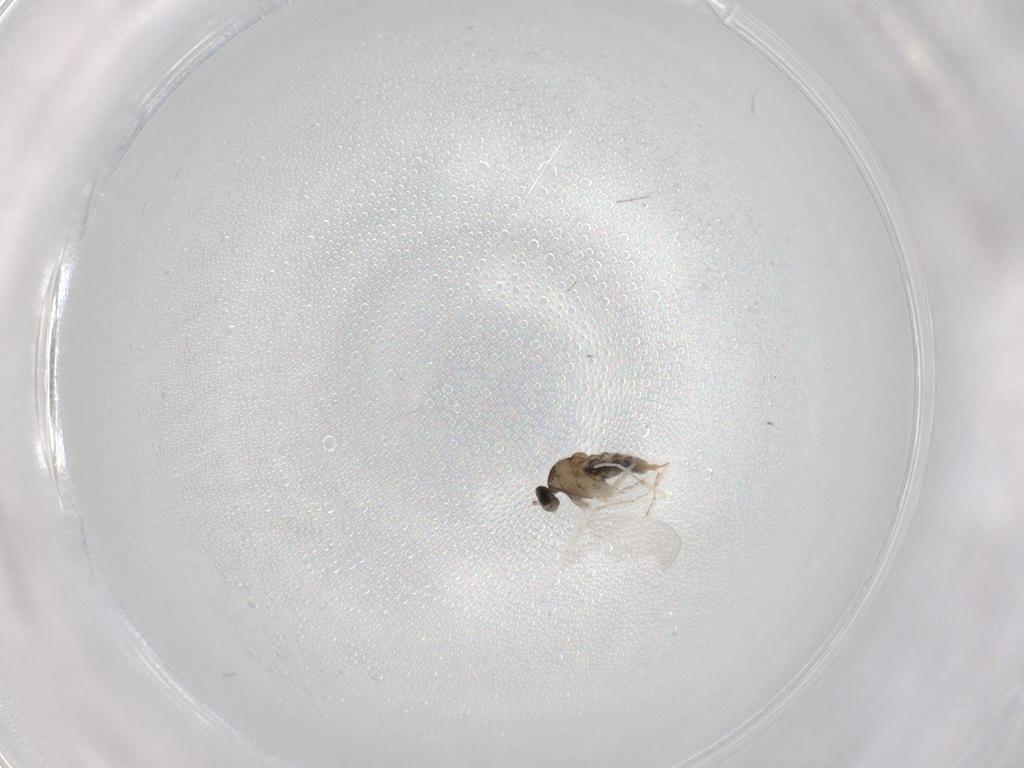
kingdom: Animalia
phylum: Arthropoda
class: Insecta
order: Diptera
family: Cecidomyiidae
